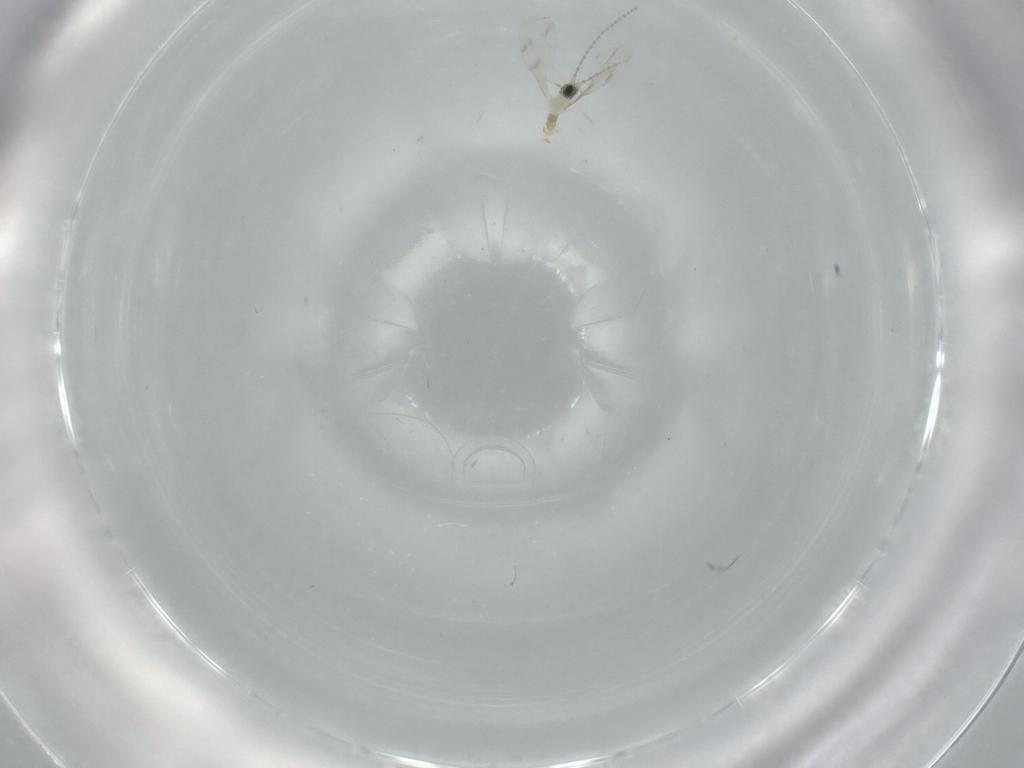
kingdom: Animalia
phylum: Arthropoda
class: Insecta
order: Diptera
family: Cecidomyiidae
